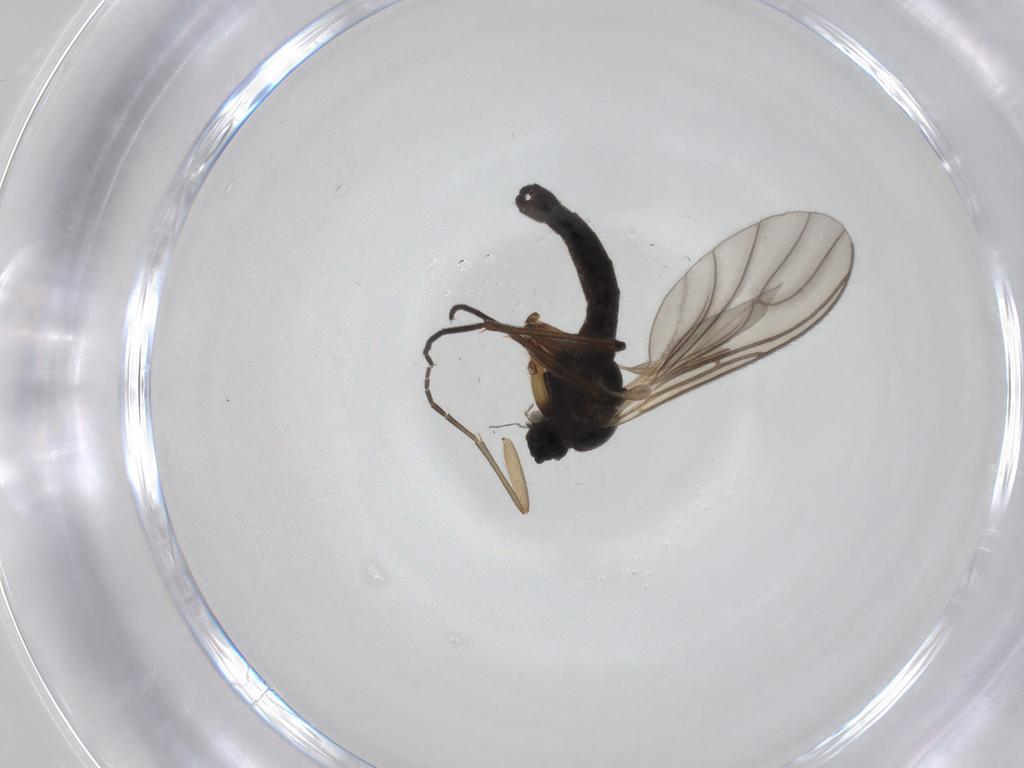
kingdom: Animalia
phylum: Arthropoda
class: Insecta
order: Diptera
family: Sciaridae
